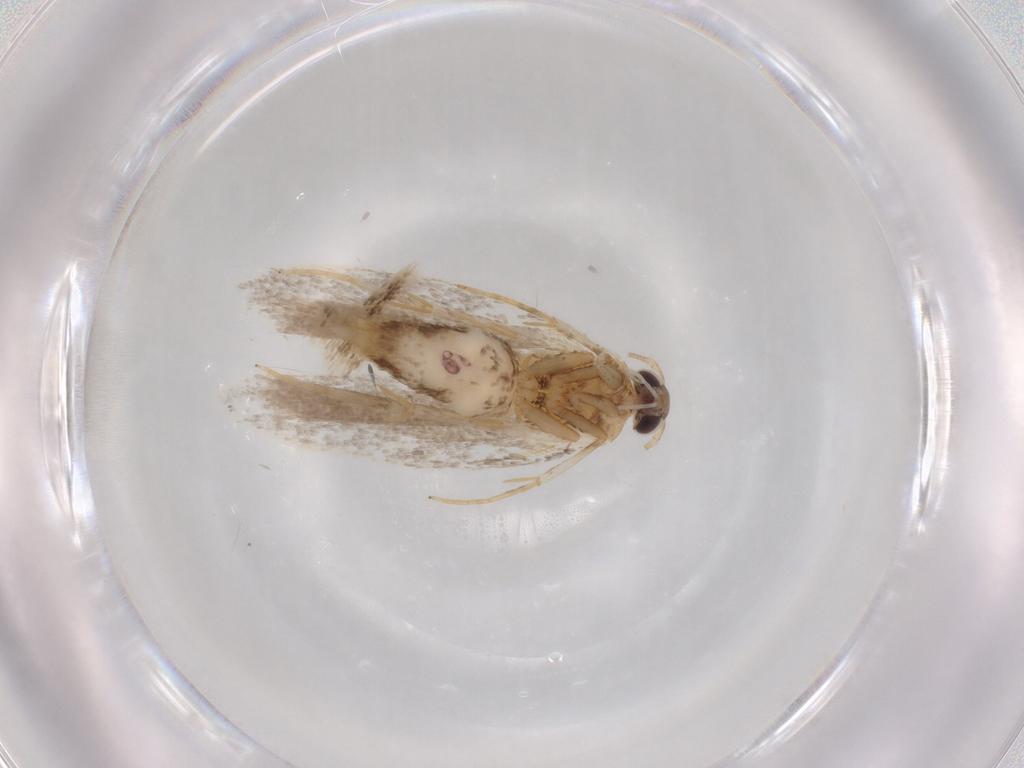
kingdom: Animalia
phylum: Arthropoda
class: Insecta
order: Lepidoptera
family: Autostichidae
